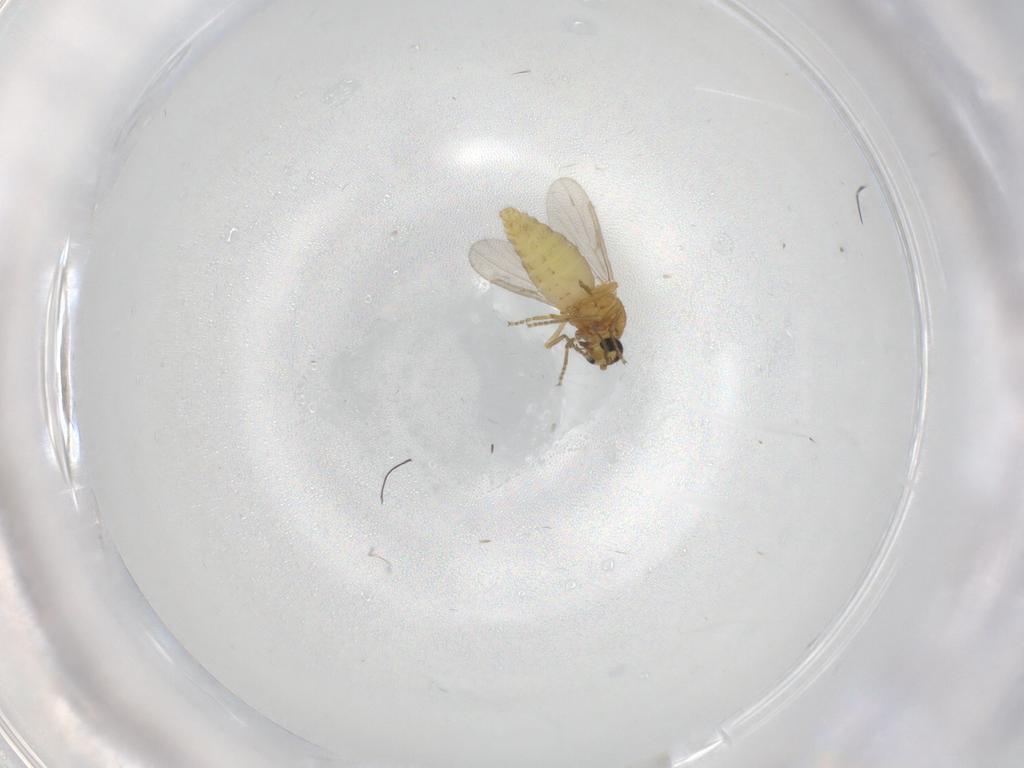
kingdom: Animalia
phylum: Arthropoda
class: Insecta
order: Diptera
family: Ceratopogonidae
